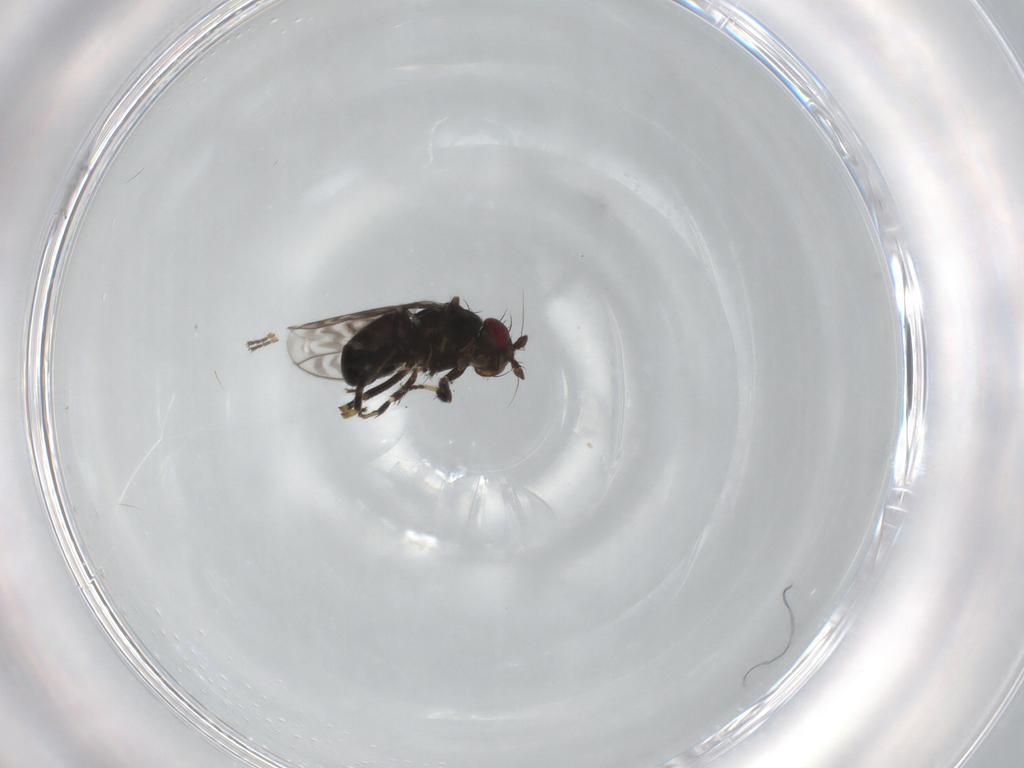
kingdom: Animalia
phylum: Arthropoda
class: Insecta
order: Diptera
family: Sphaeroceridae
